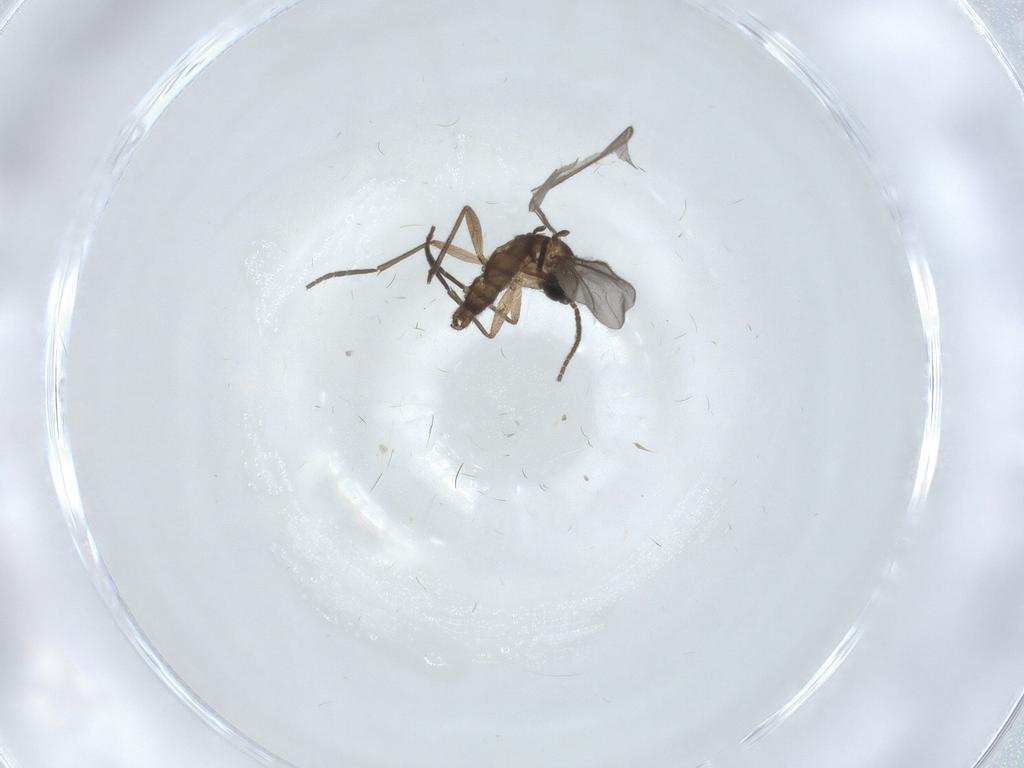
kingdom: Animalia
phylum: Arthropoda
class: Insecta
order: Diptera
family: Sciaridae
